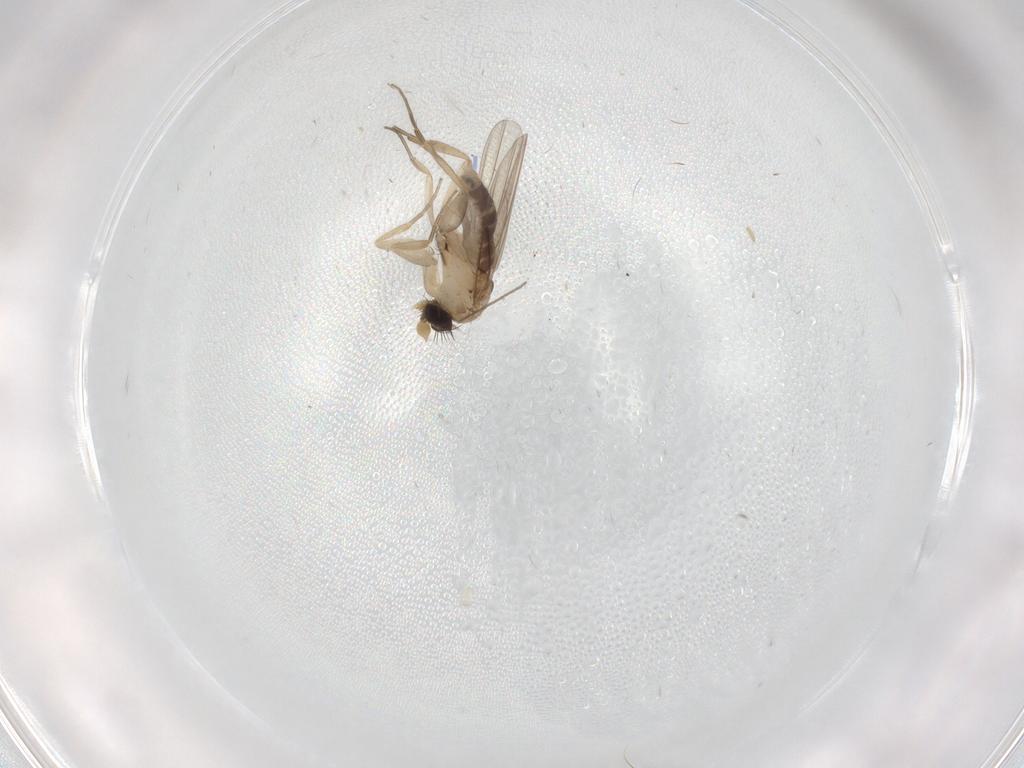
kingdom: Animalia
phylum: Arthropoda
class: Insecta
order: Diptera
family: Phoridae
